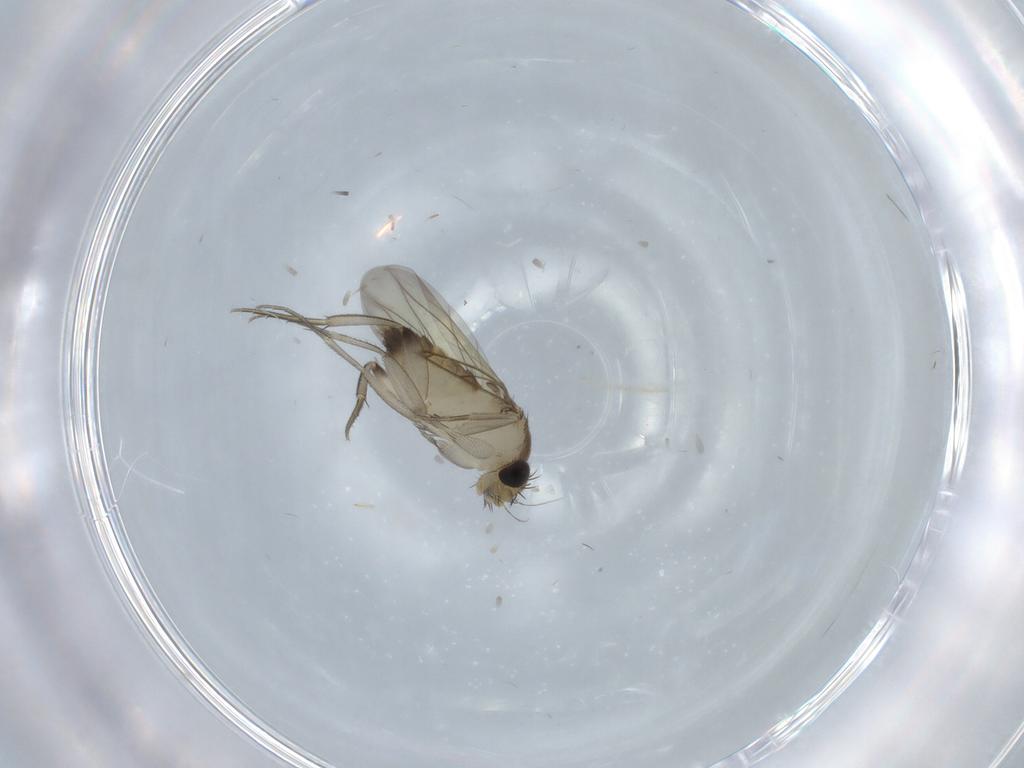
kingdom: Animalia
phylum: Arthropoda
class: Insecta
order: Diptera
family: Phoridae
